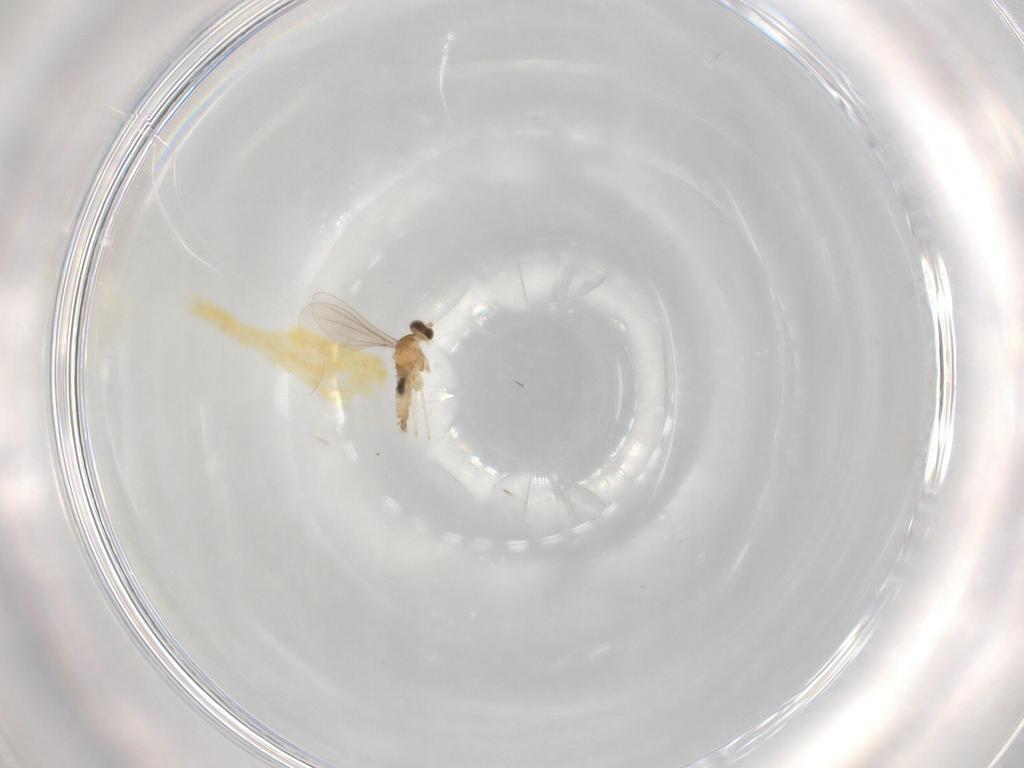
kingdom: Animalia
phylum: Arthropoda
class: Insecta
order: Diptera
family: Cecidomyiidae
